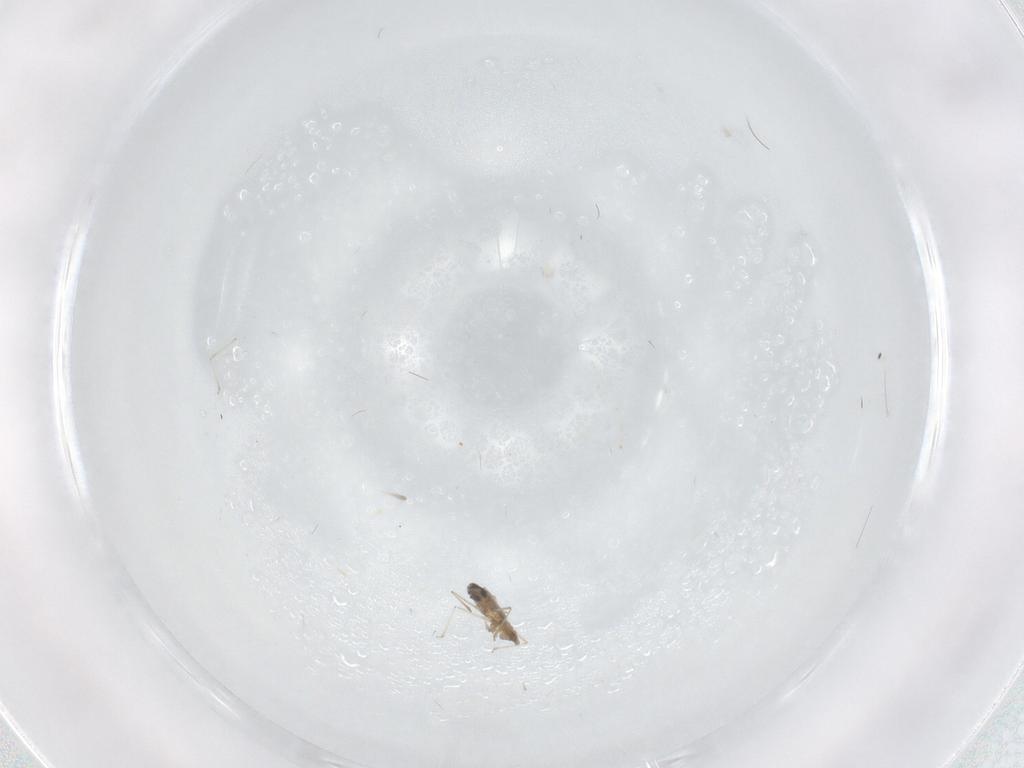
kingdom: Animalia
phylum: Arthropoda
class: Insecta
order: Diptera
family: Cecidomyiidae
